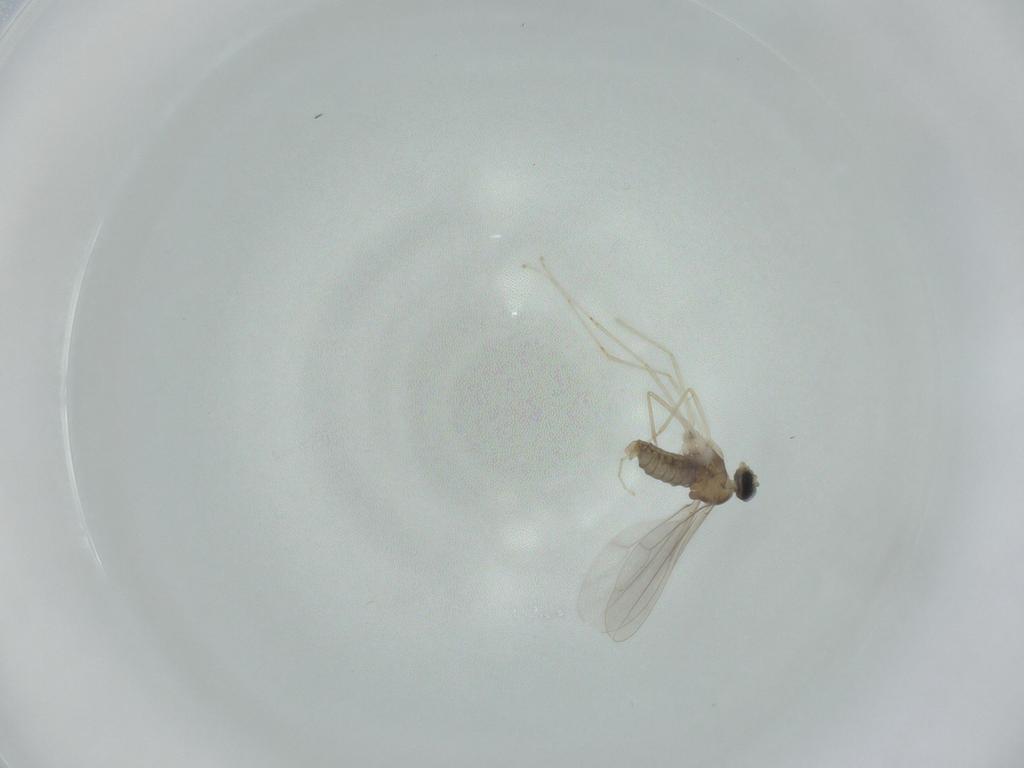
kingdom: Animalia
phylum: Arthropoda
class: Insecta
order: Diptera
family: Cecidomyiidae
